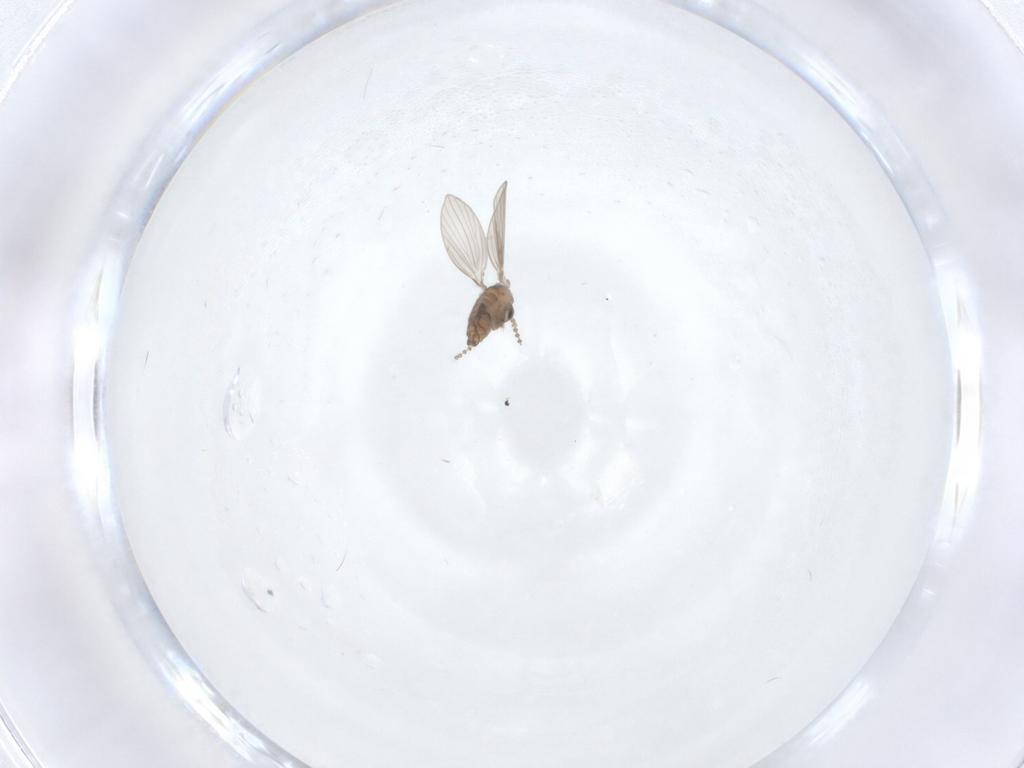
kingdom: Animalia
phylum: Arthropoda
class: Insecta
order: Diptera
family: Psychodidae
